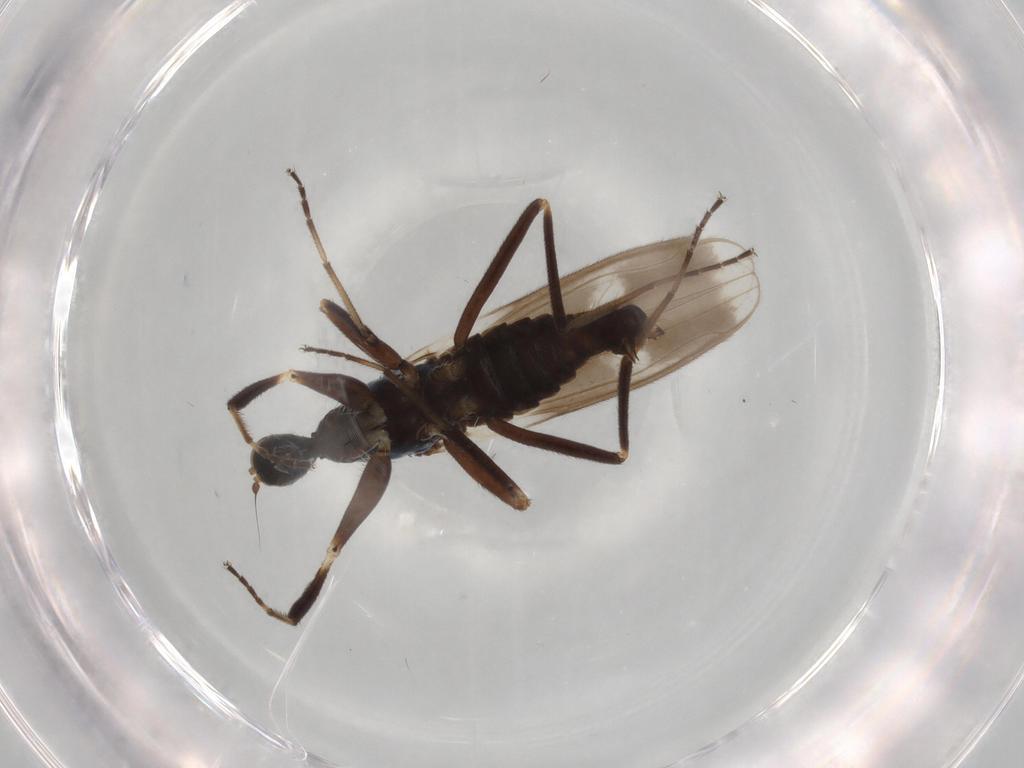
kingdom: Animalia
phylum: Arthropoda
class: Insecta
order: Diptera
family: Hybotidae
